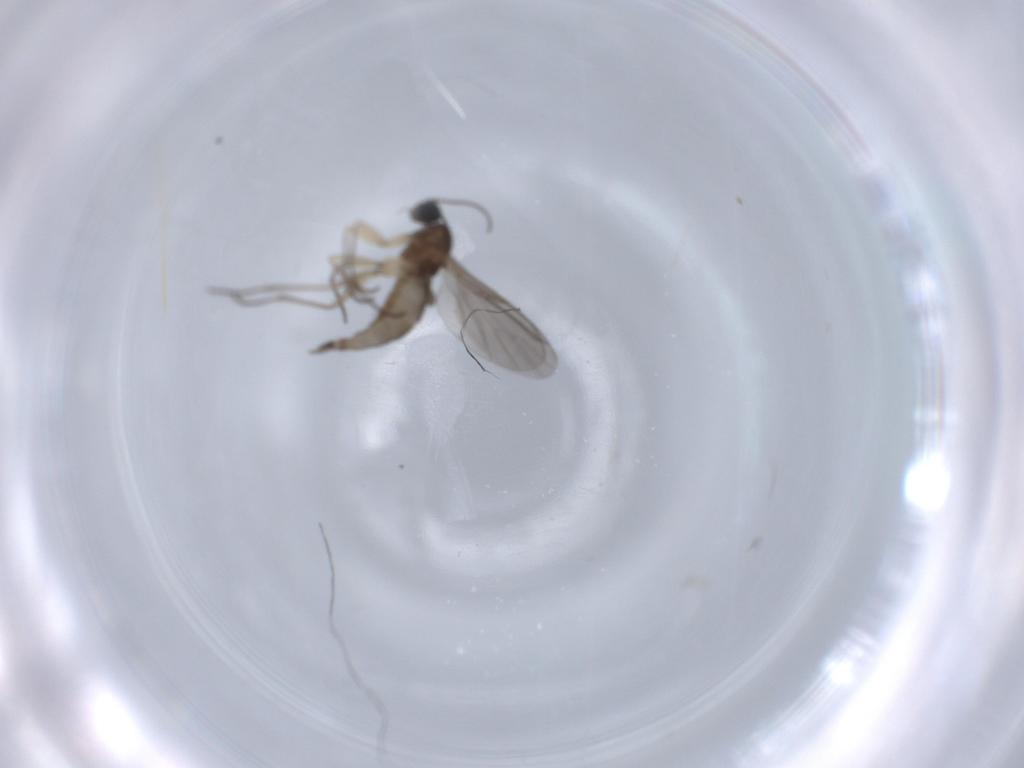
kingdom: Animalia
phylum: Arthropoda
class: Insecta
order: Diptera
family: Sciaridae
